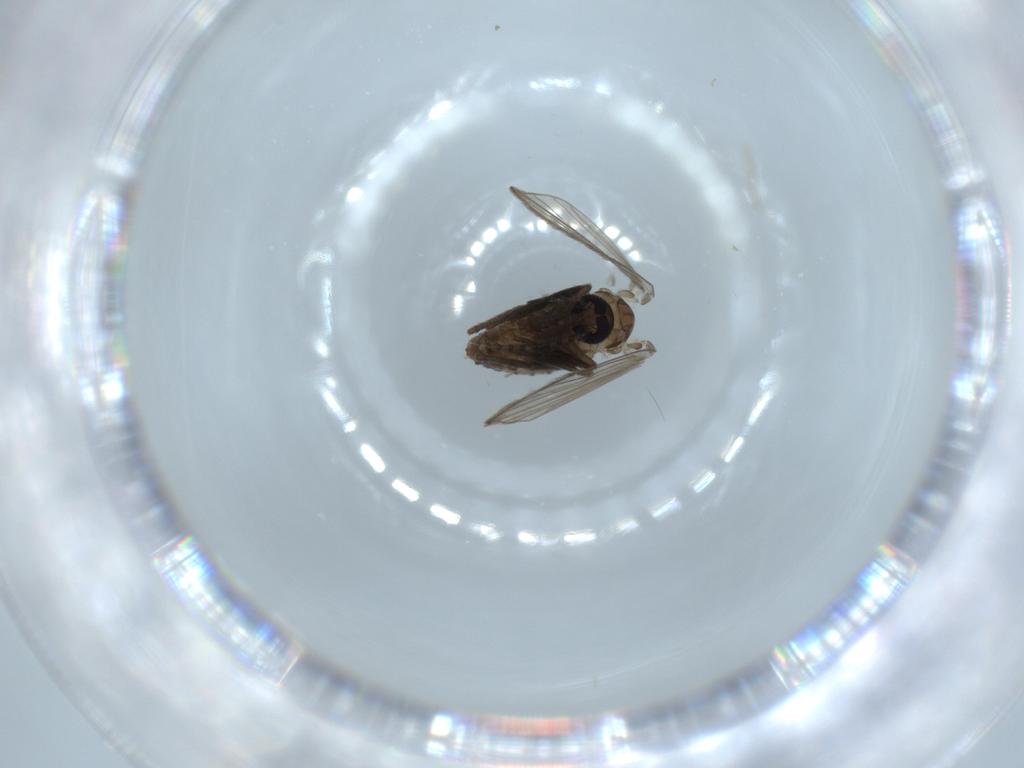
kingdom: Animalia
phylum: Arthropoda
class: Insecta
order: Diptera
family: Psychodidae
